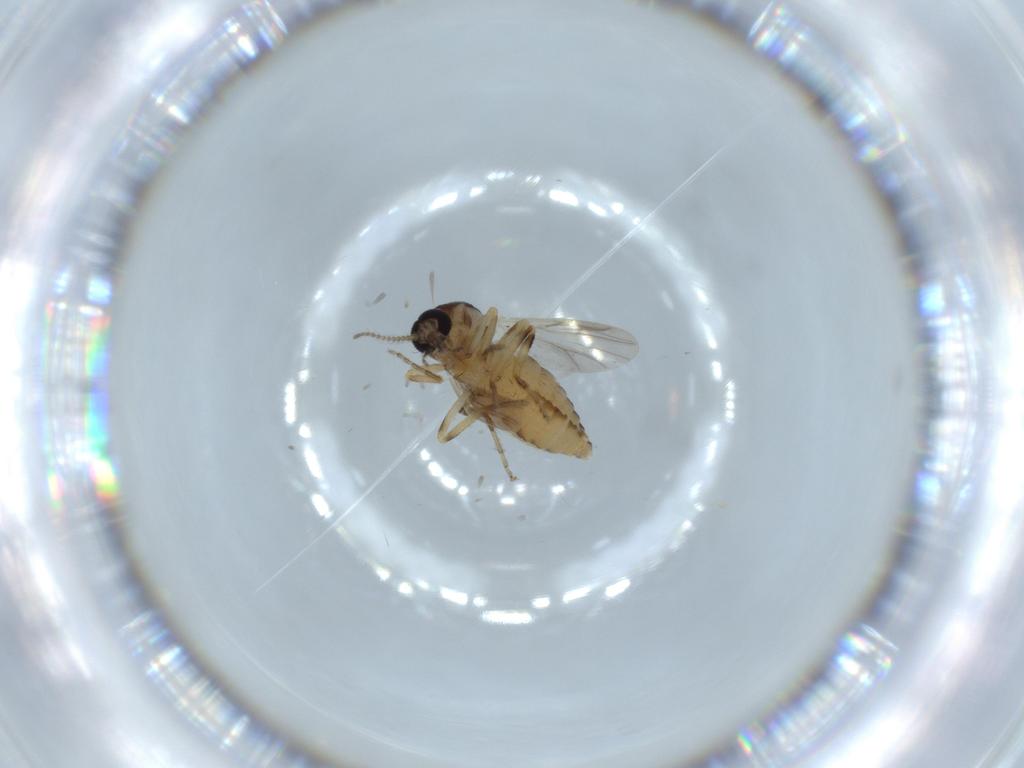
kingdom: Animalia
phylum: Arthropoda
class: Insecta
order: Diptera
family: Ceratopogonidae
